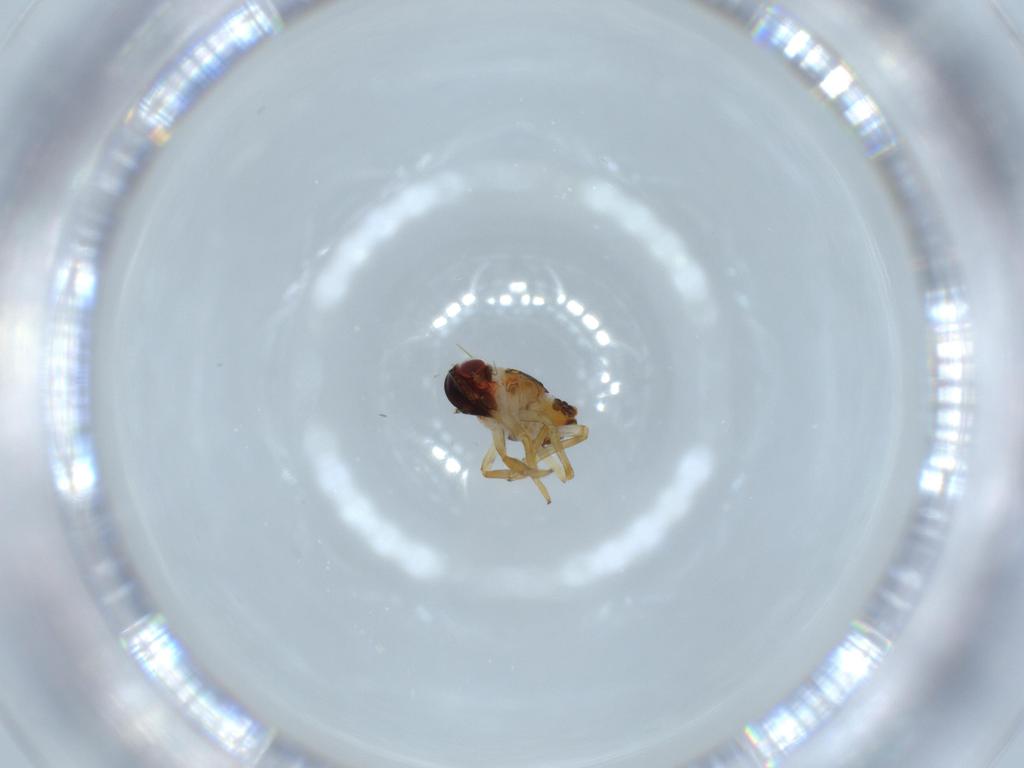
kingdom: Animalia
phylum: Arthropoda
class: Insecta
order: Hemiptera
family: Issidae
